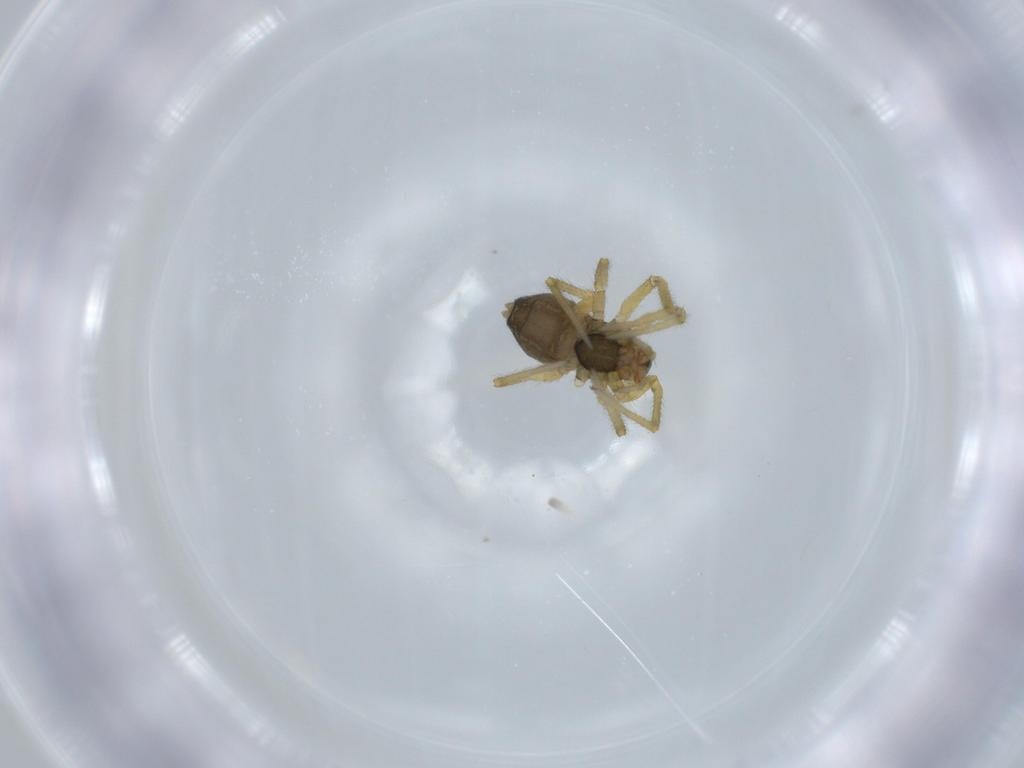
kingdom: Animalia
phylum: Arthropoda
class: Arachnida
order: Araneae
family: Linyphiidae
